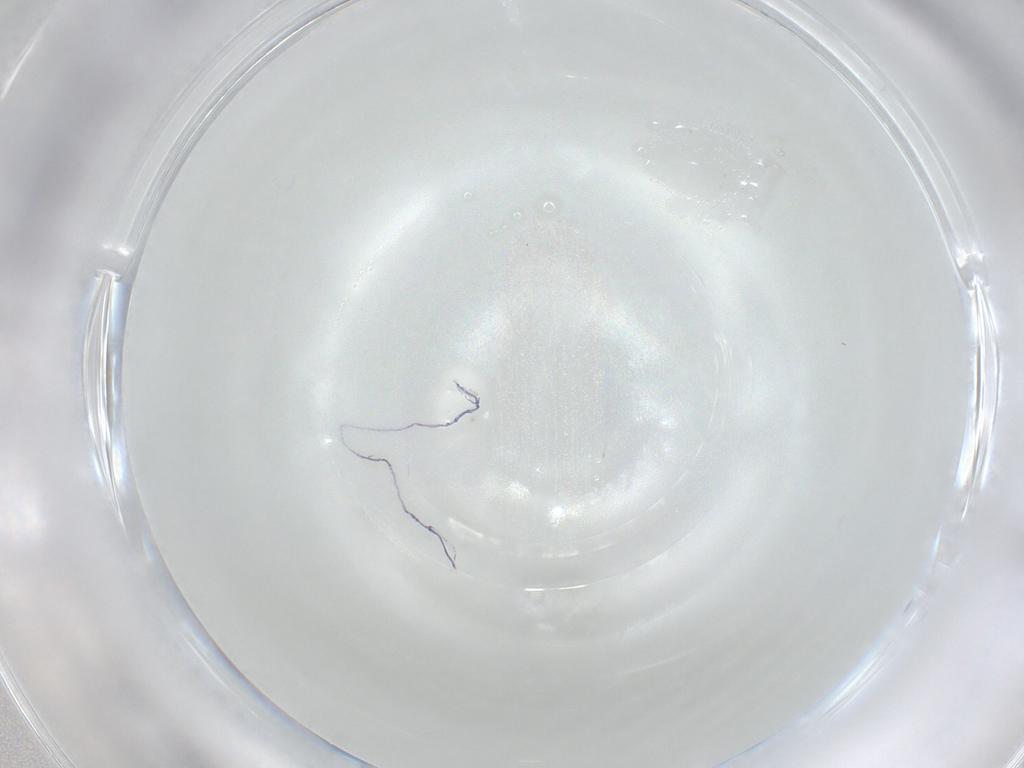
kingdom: Animalia
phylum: Arthropoda
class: Insecta
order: Thysanoptera
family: Phlaeothripidae
